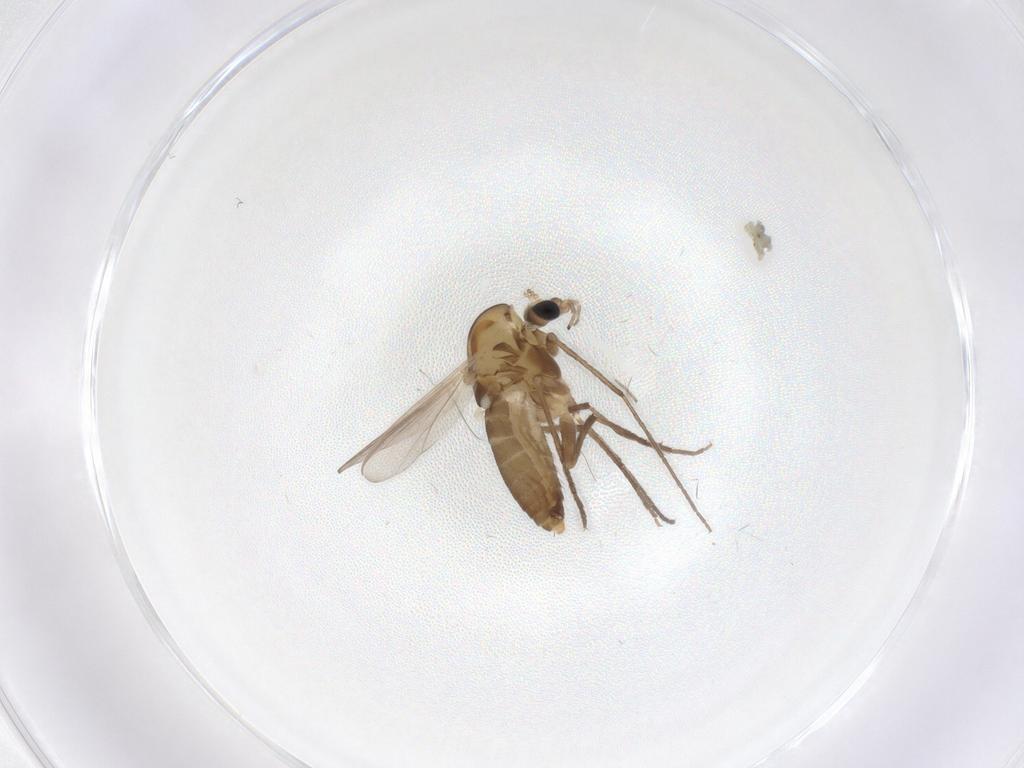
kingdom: Animalia
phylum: Arthropoda
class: Insecta
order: Diptera
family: Chironomidae
